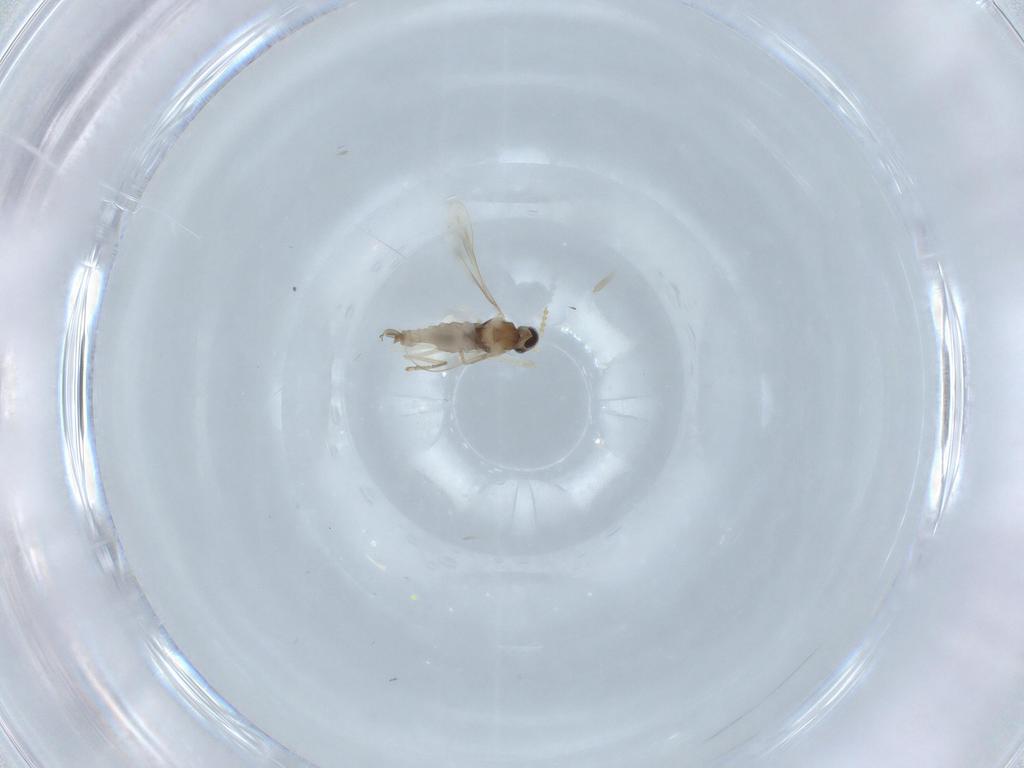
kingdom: Animalia
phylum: Arthropoda
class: Insecta
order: Diptera
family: Cecidomyiidae
